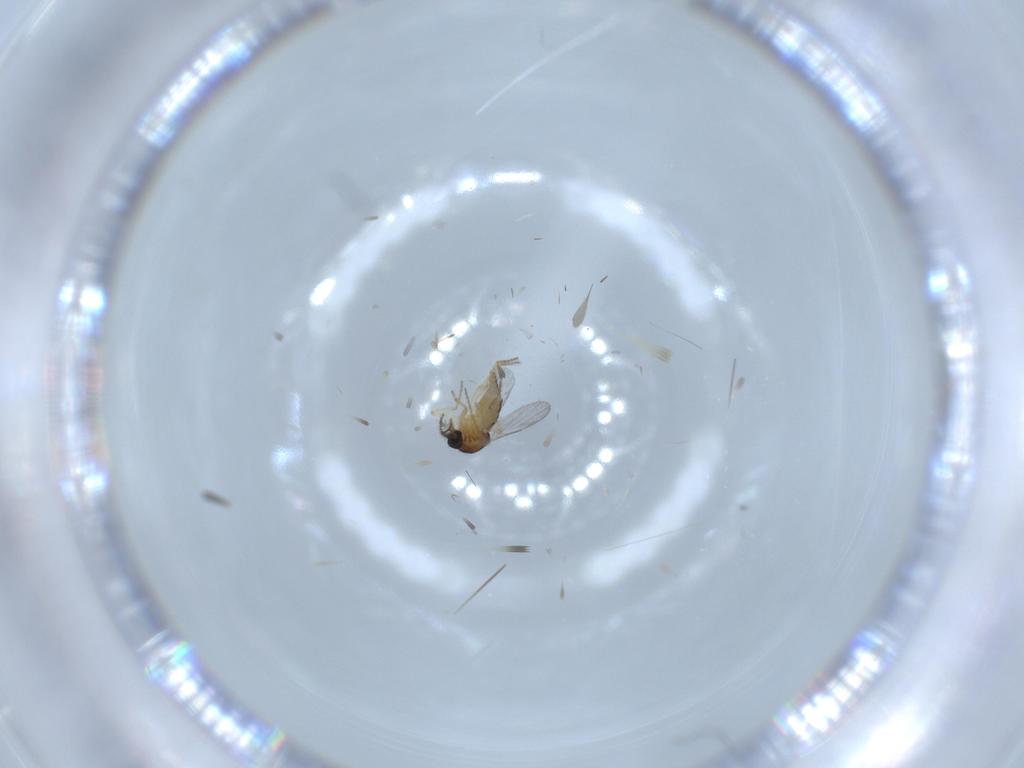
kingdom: Animalia
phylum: Arthropoda
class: Insecta
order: Diptera
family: Ceratopogonidae
